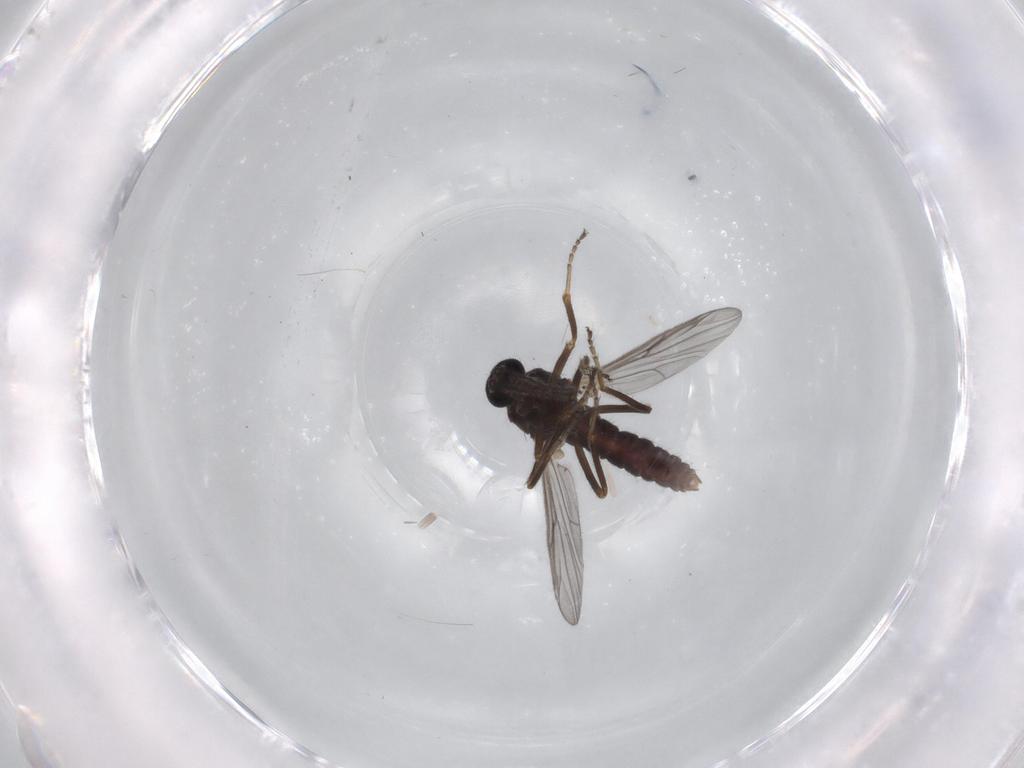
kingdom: Animalia
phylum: Arthropoda
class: Insecta
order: Diptera
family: Ceratopogonidae
